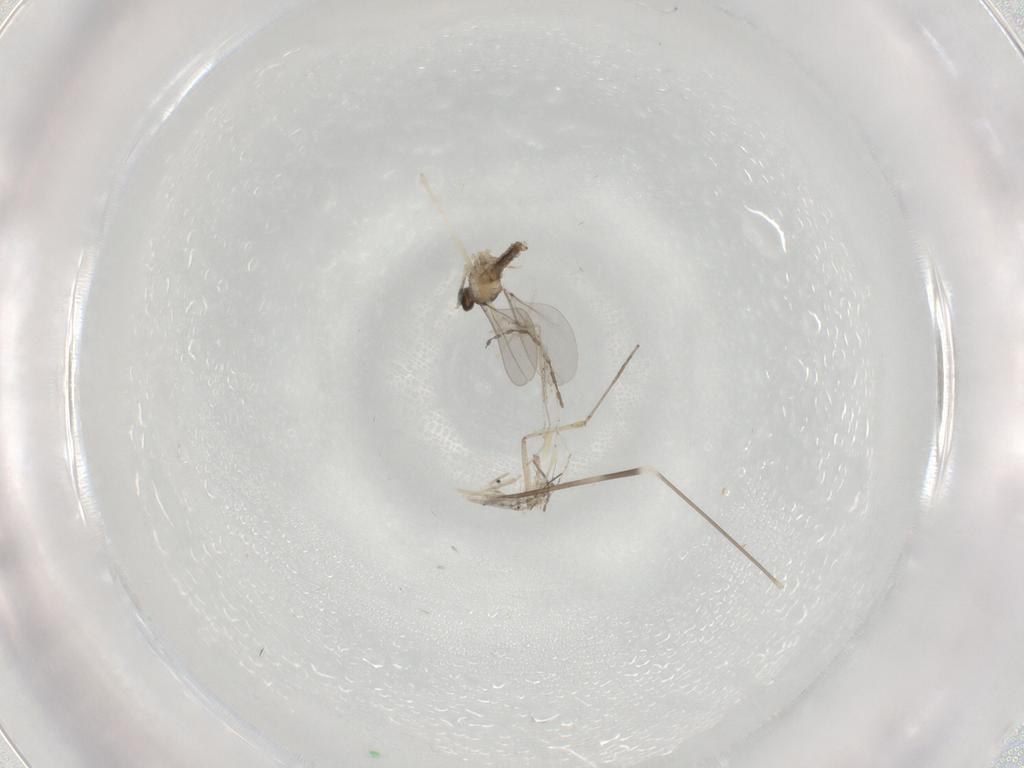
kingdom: Animalia
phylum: Arthropoda
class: Insecta
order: Diptera
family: Limoniidae
